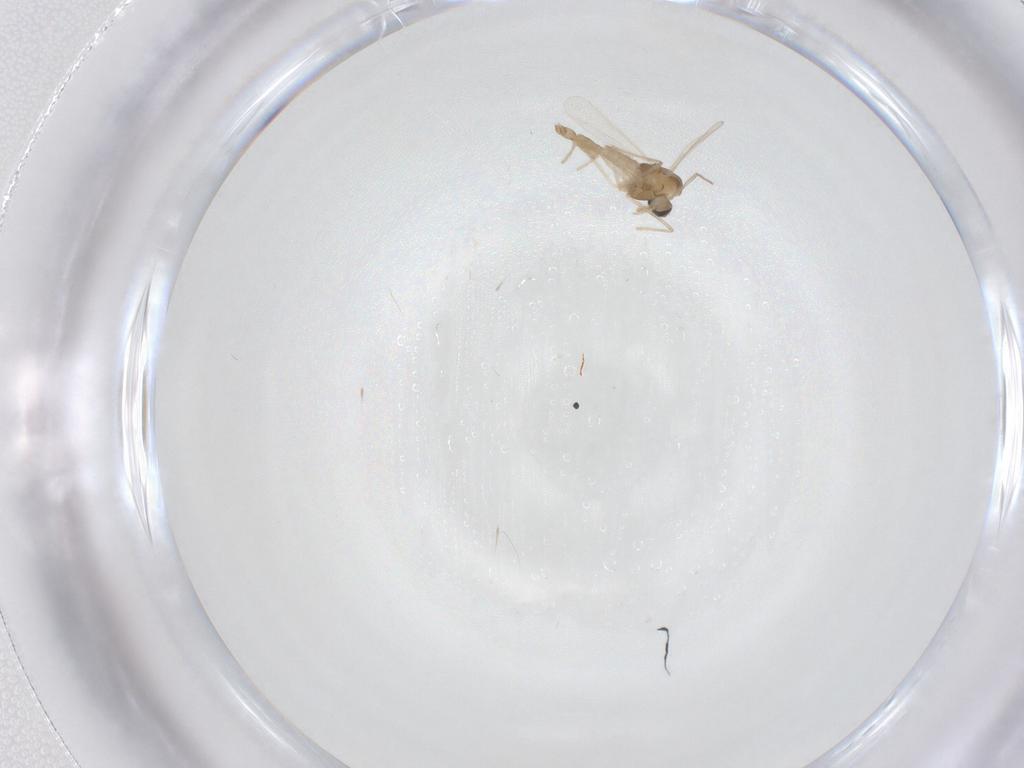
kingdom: Animalia
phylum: Arthropoda
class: Insecta
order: Diptera
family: Chironomidae
